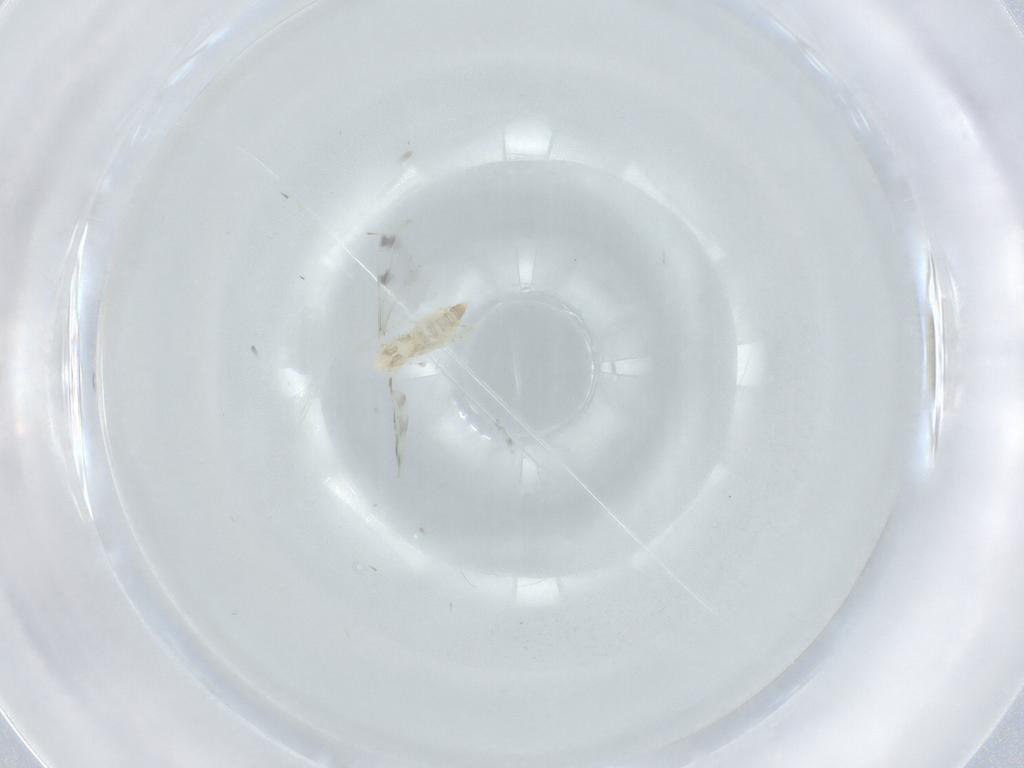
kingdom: Animalia
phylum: Arthropoda
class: Insecta
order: Diptera
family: Cecidomyiidae
